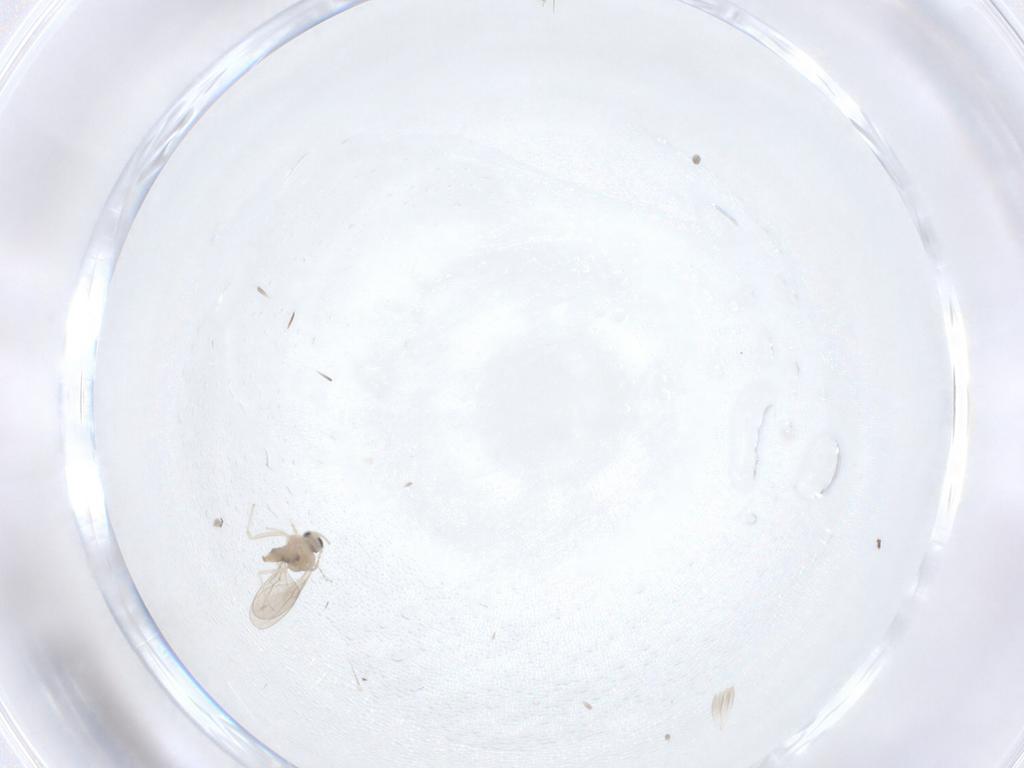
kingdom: Animalia
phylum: Arthropoda
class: Insecta
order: Diptera
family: Cecidomyiidae
